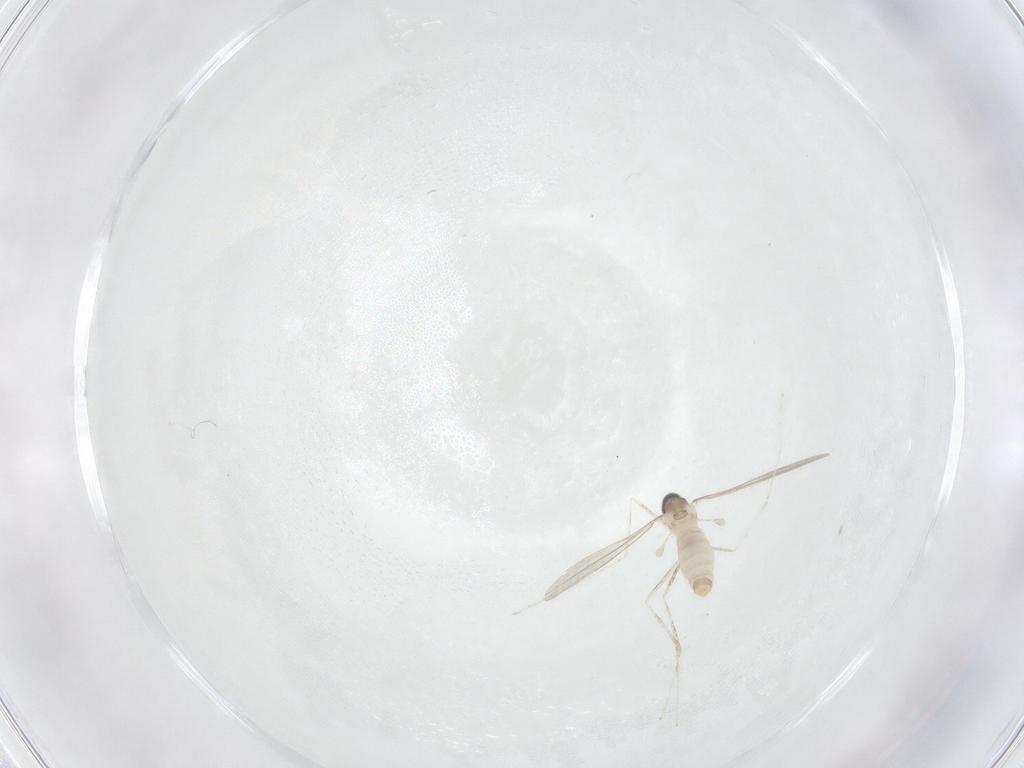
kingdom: Animalia
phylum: Arthropoda
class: Insecta
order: Diptera
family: Cecidomyiidae
